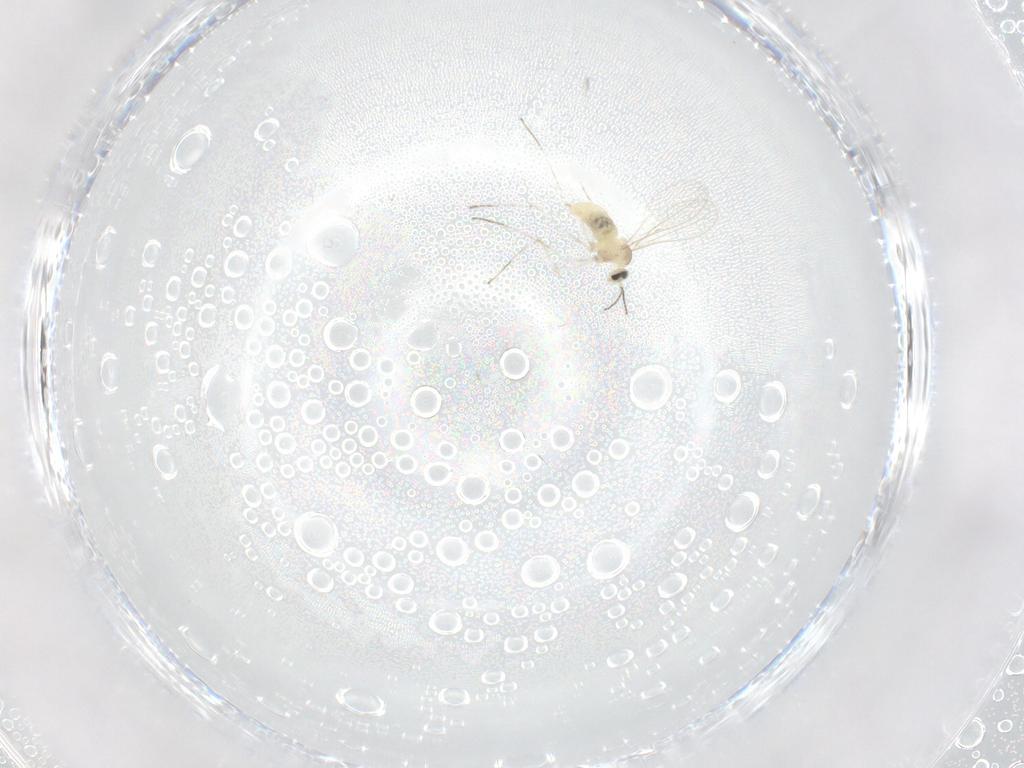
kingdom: Animalia
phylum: Arthropoda
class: Insecta
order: Diptera
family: Cecidomyiidae
